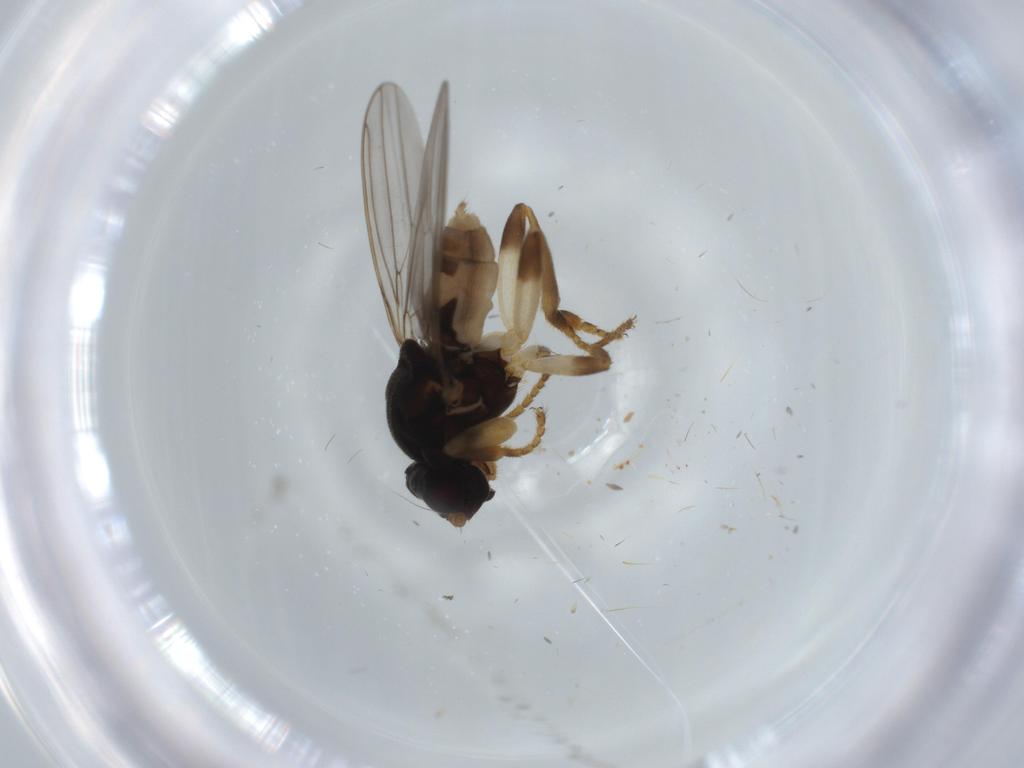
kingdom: Animalia
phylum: Arthropoda
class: Insecta
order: Diptera
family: Sphaeroceridae
